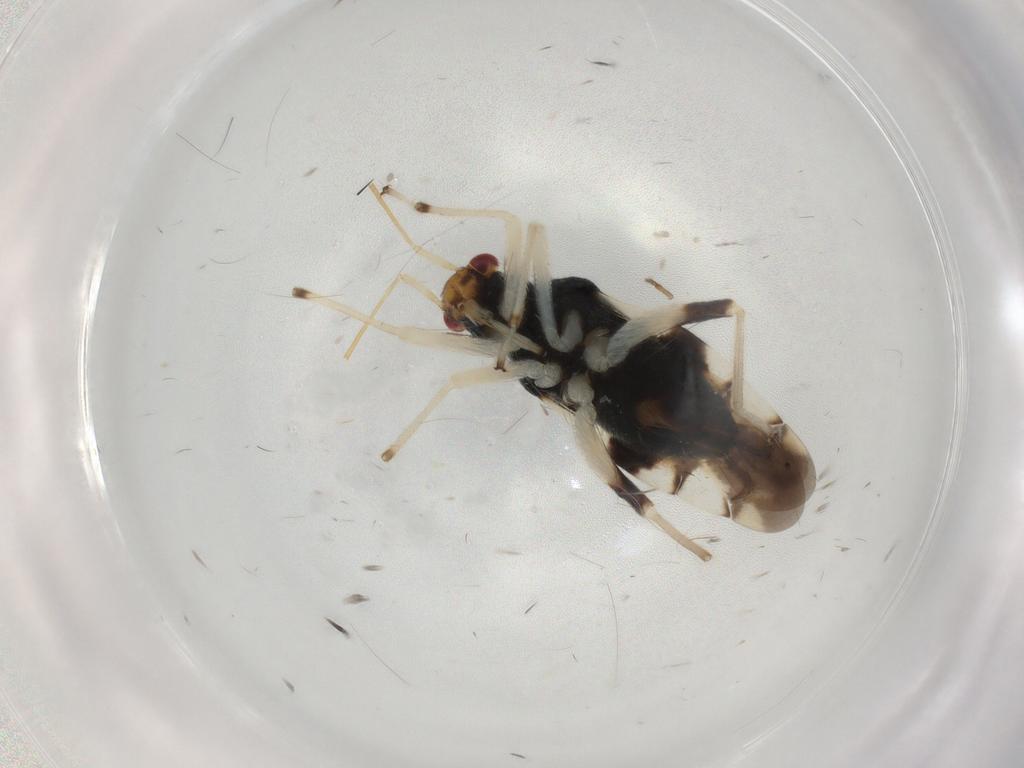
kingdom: Animalia
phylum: Arthropoda
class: Insecta
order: Hemiptera
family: Miridae
